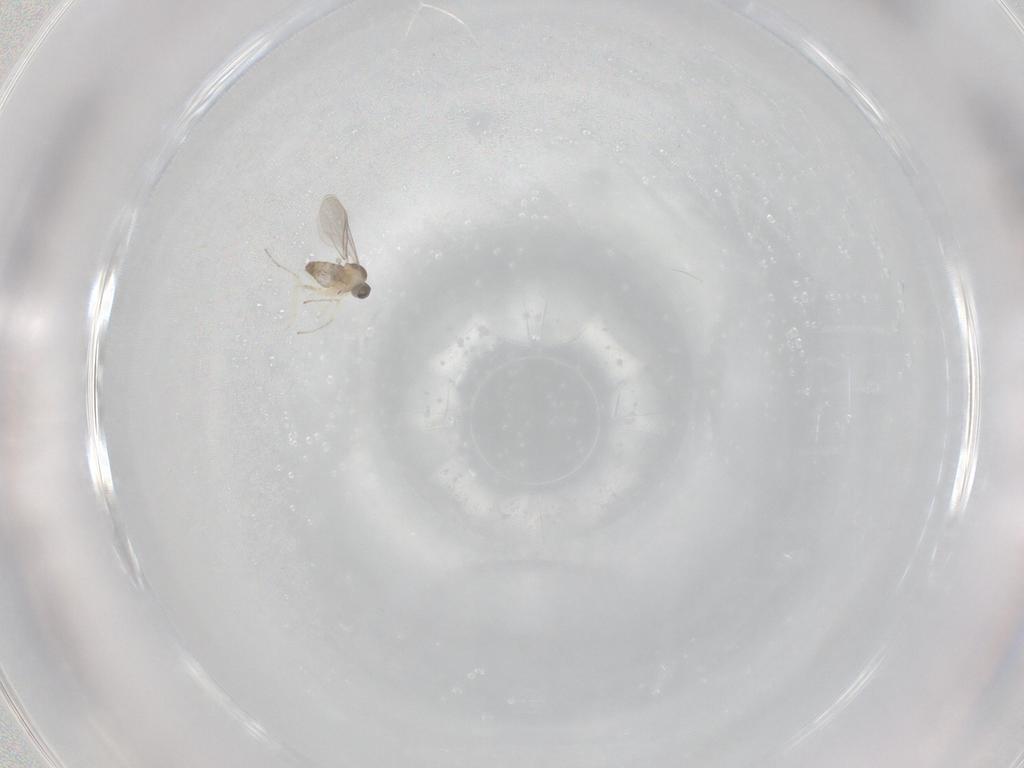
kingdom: Animalia
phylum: Arthropoda
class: Insecta
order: Diptera
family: Cecidomyiidae
